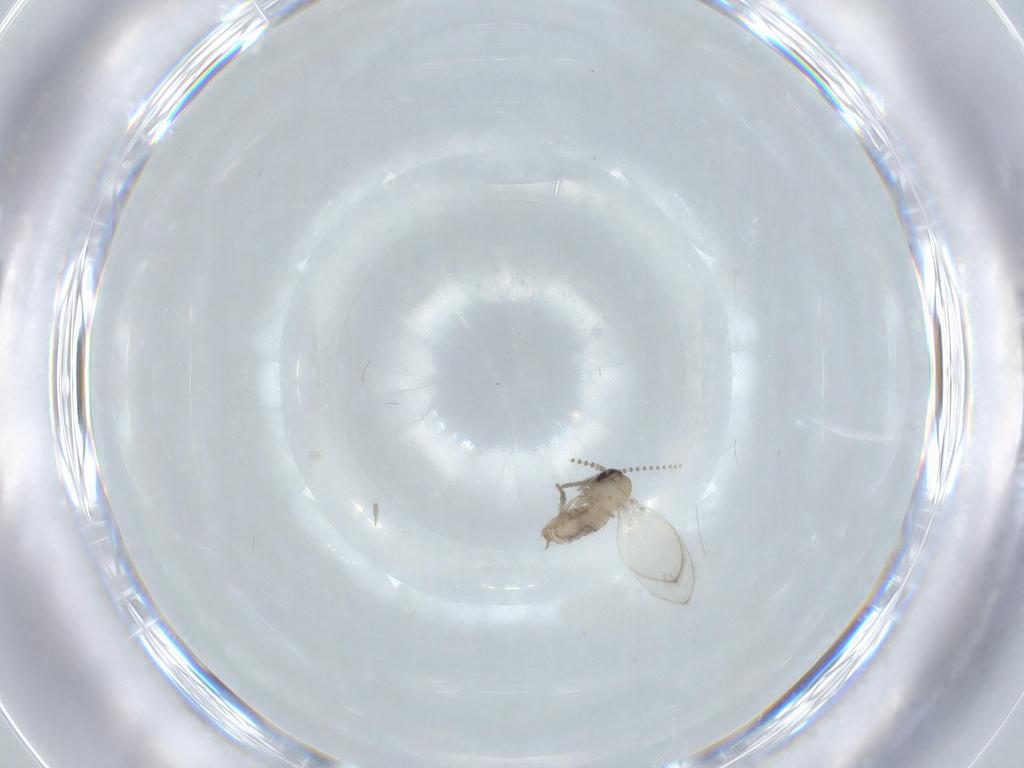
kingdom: Animalia
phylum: Arthropoda
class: Insecta
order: Diptera
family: Psychodidae
